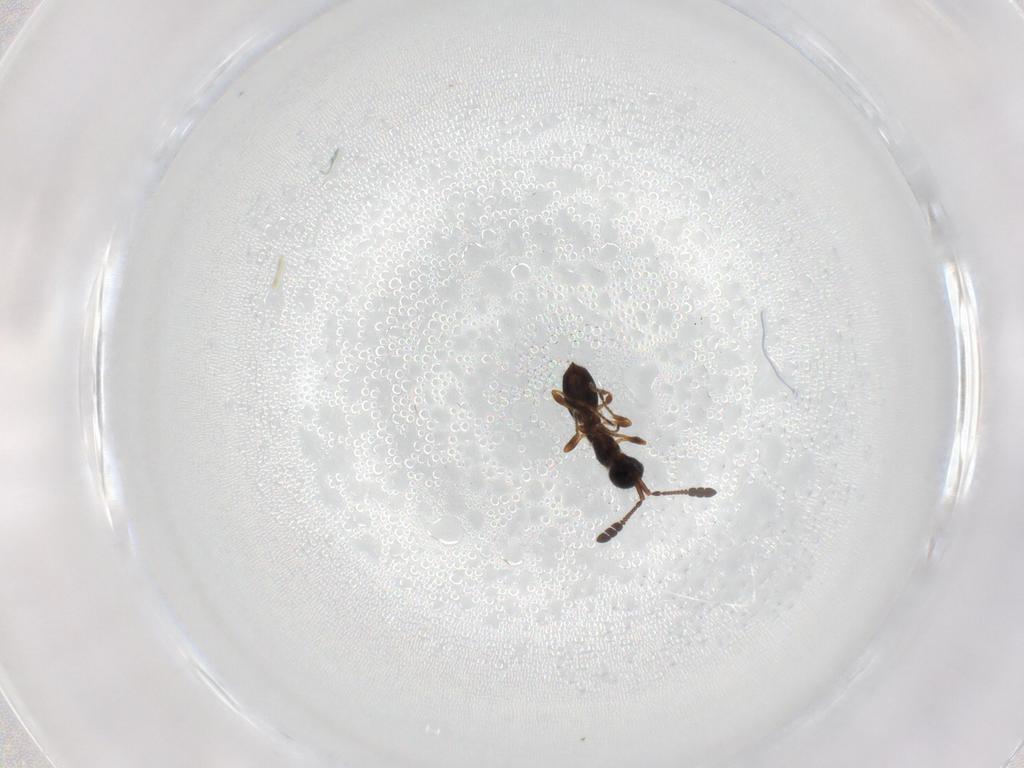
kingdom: Animalia
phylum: Arthropoda
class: Insecta
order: Hymenoptera
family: Diapriidae
